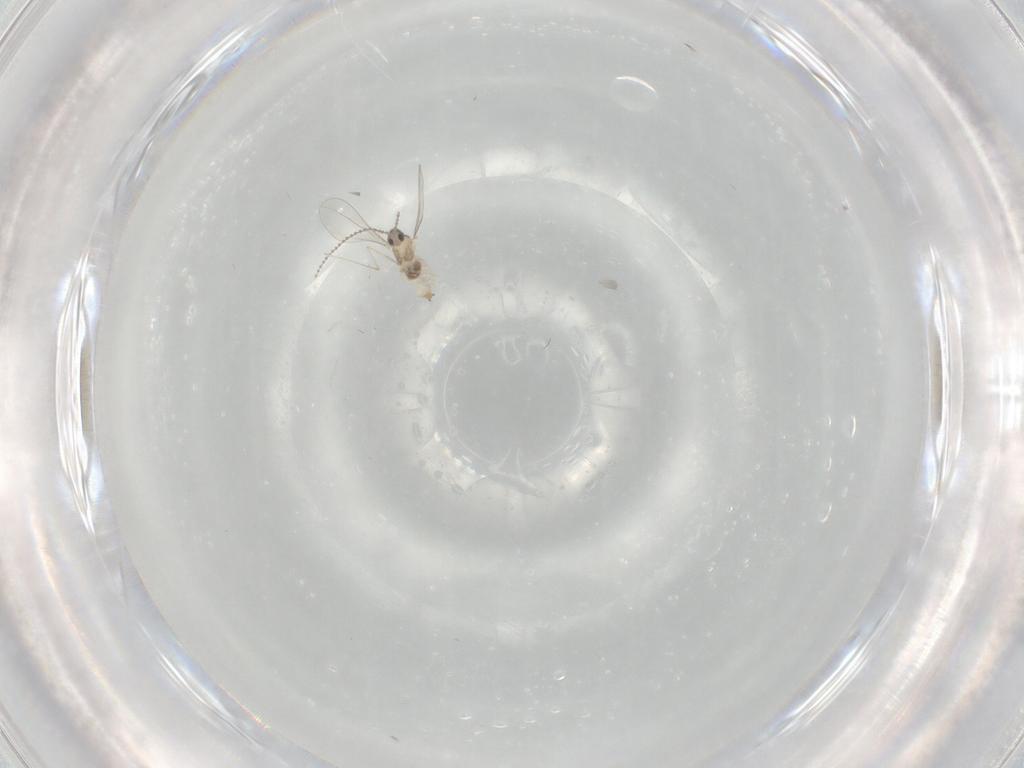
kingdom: Animalia
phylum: Arthropoda
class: Insecta
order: Diptera
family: Cecidomyiidae
